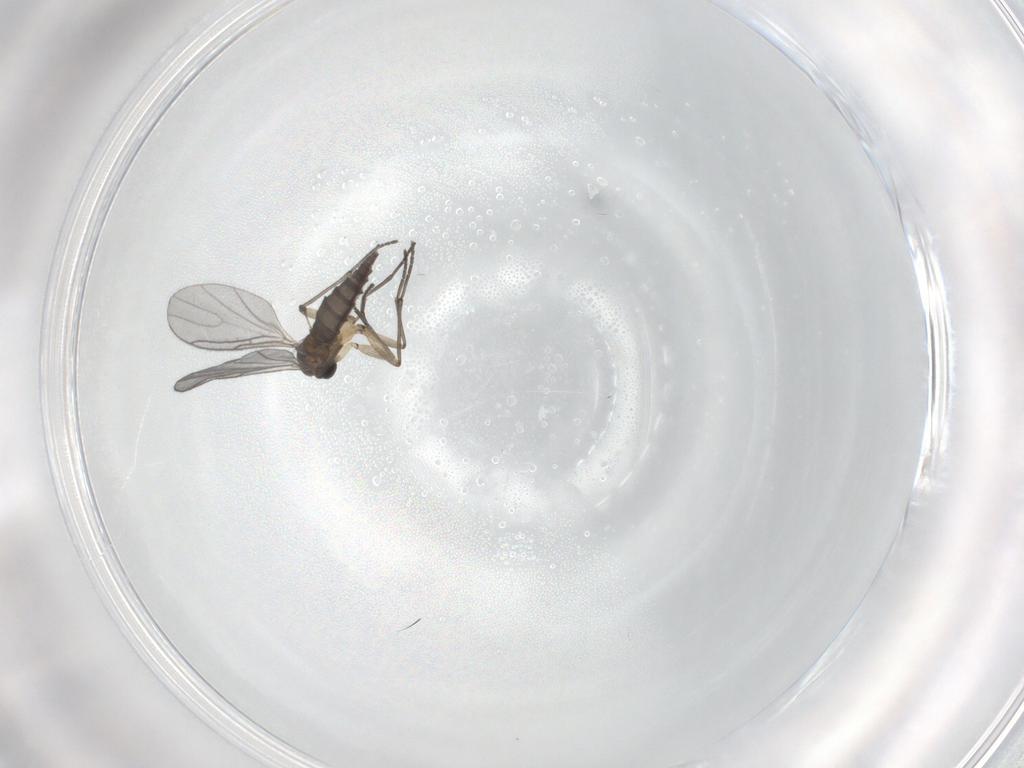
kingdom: Animalia
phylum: Arthropoda
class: Insecta
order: Diptera
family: Sciaridae
